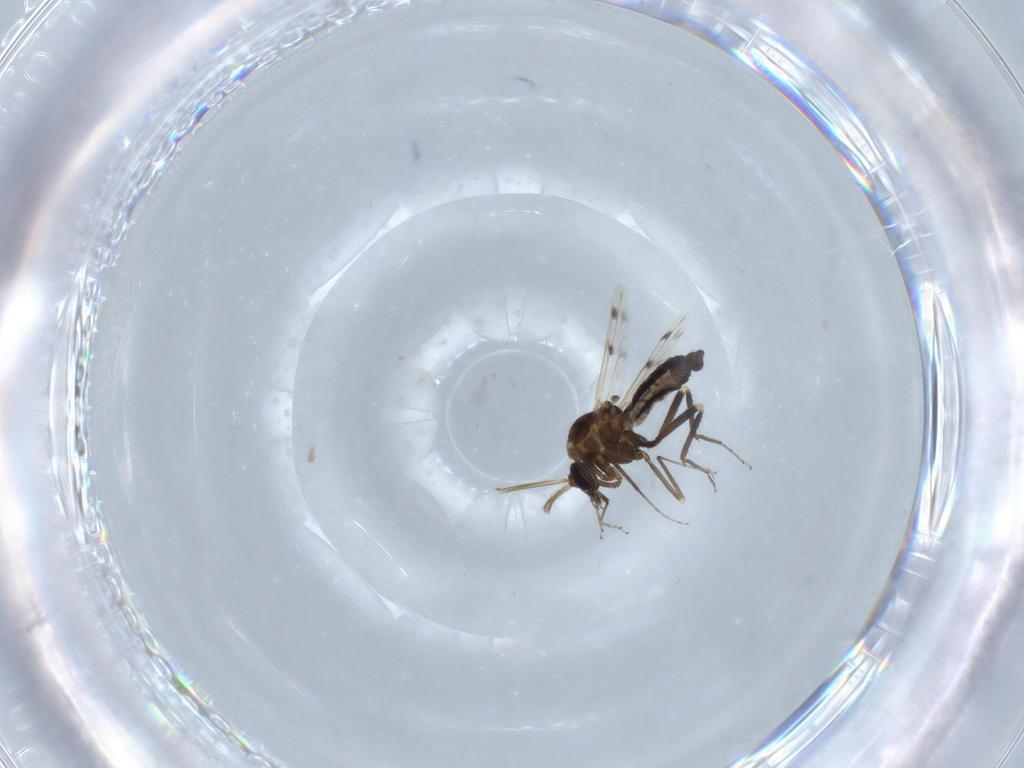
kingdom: Animalia
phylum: Arthropoda
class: Insecta
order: Diptera
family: Ceratopogonidae
